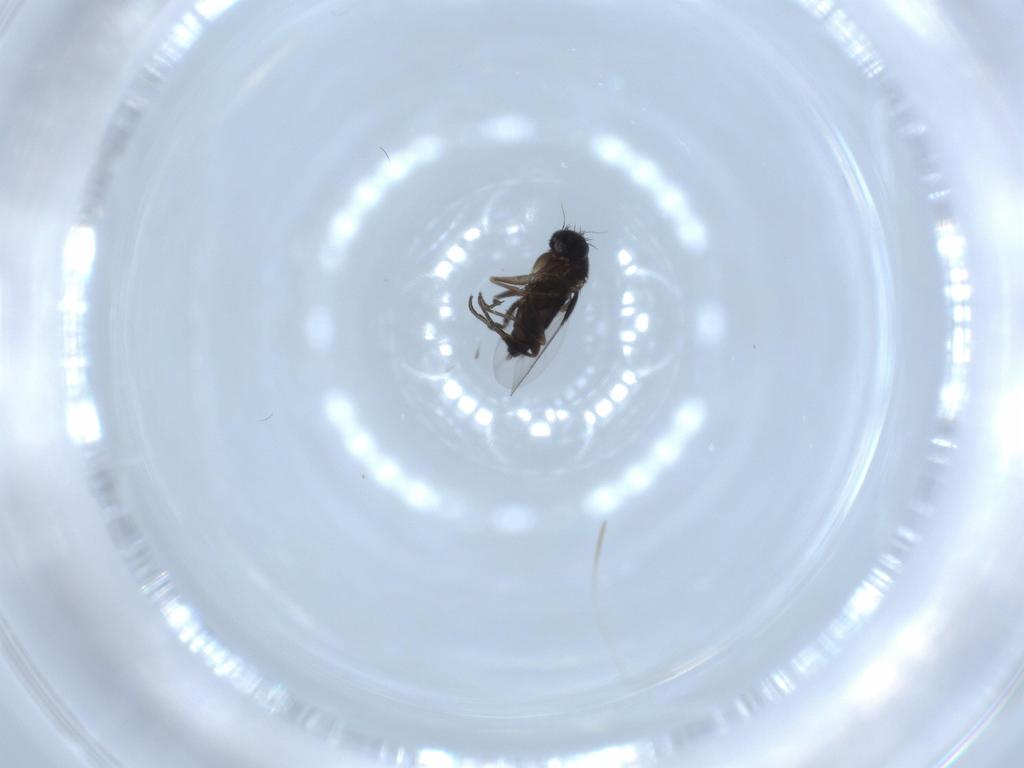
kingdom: Animalia
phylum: Arthropoda
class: Insecta
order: Diptera
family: Phoridae
